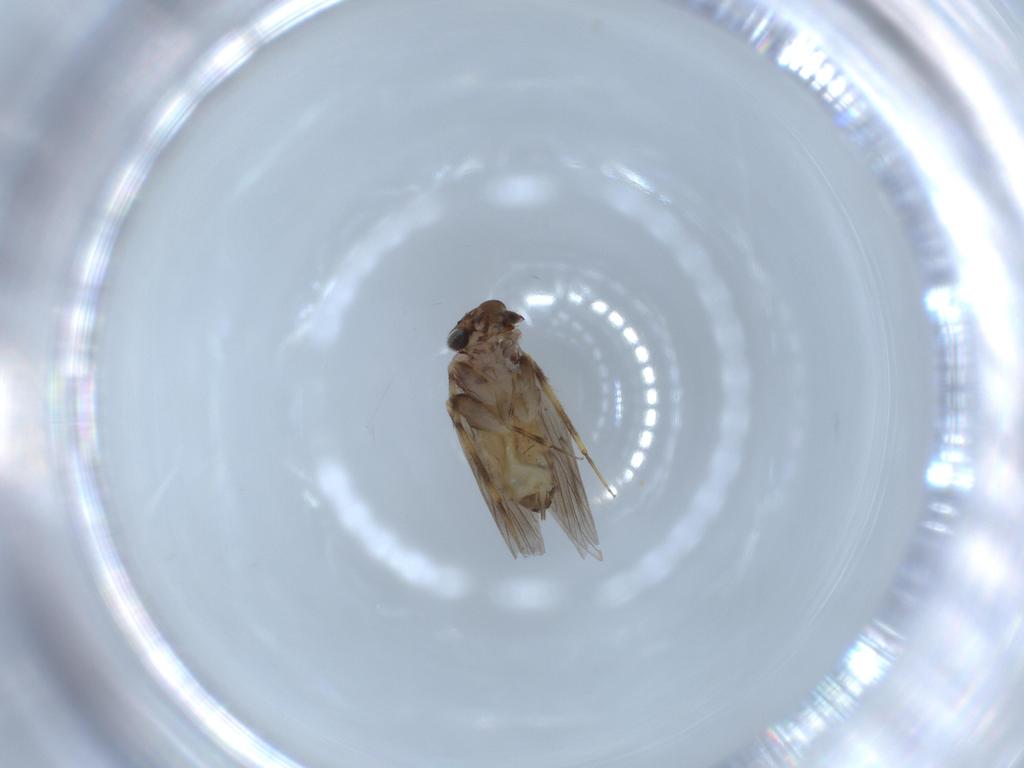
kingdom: Animalia
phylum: Arthropoda
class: Insecta
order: Psocodea
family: Lepidopsocidae
